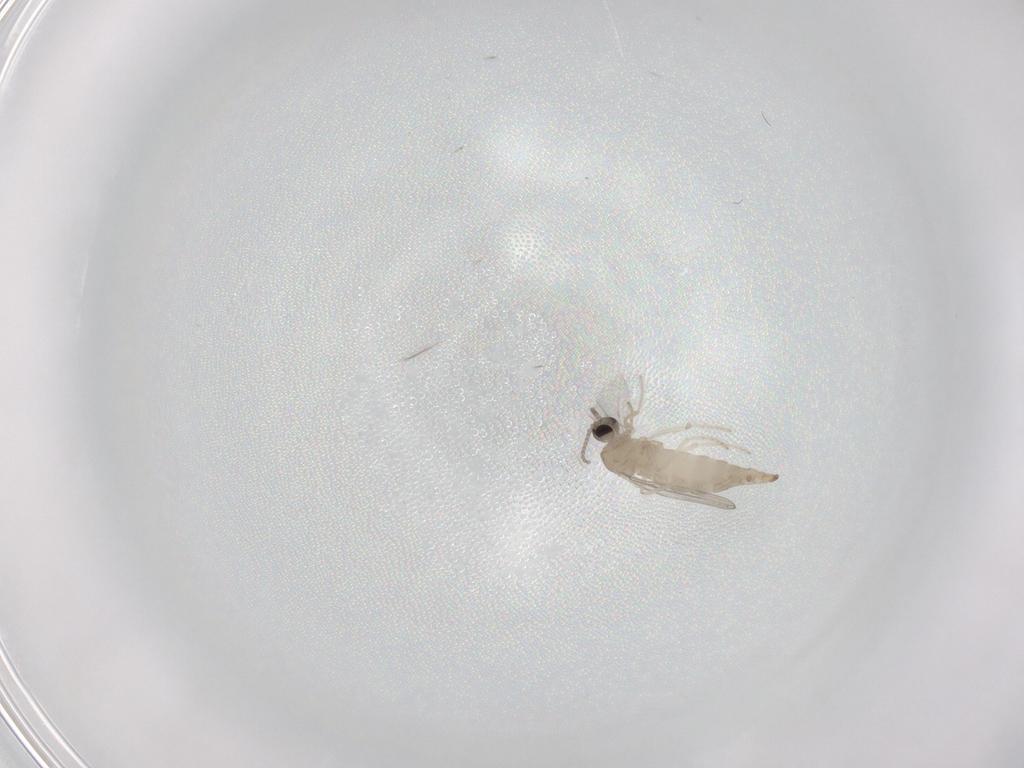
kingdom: Animalia
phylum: Arthropoda
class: Insecta
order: Diptera
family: Cecidomyiidae
